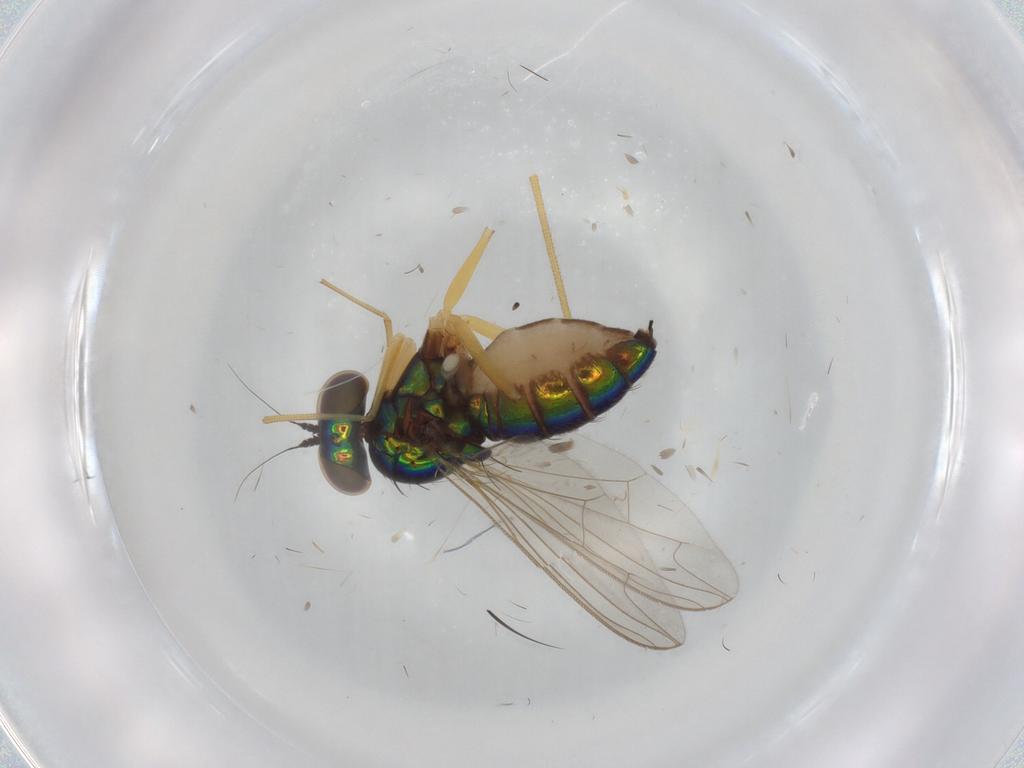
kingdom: Animalia
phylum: Arthropoda
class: Insecta
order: Diptera
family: Dolichopodidae
